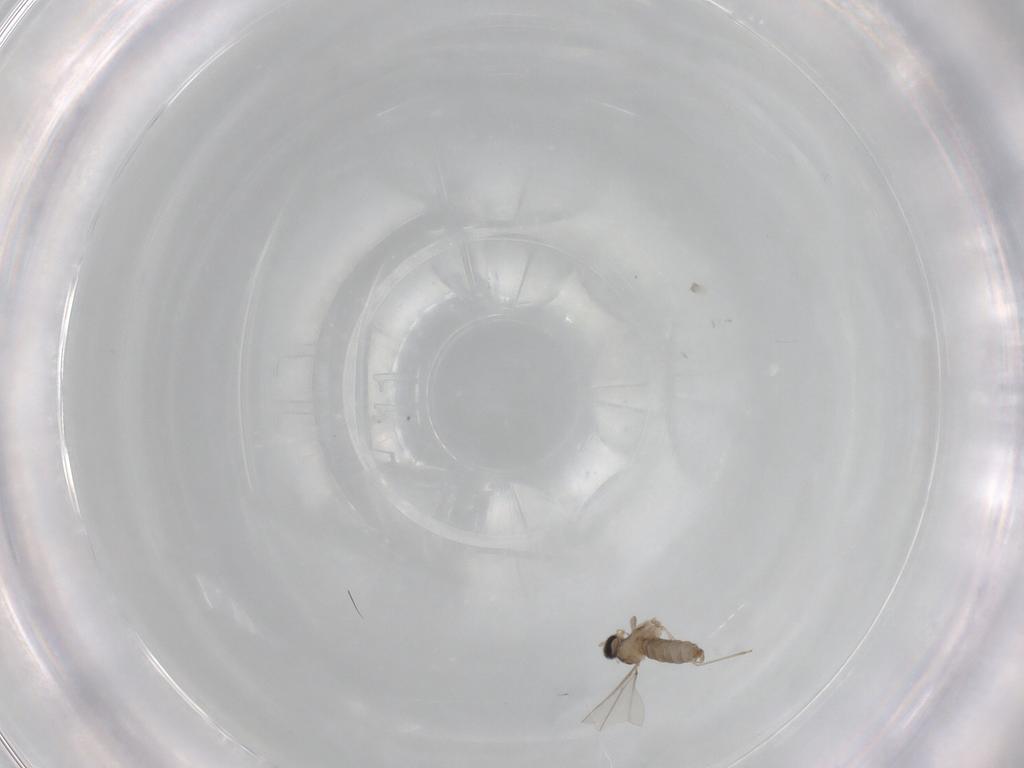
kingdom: Animalia
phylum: Arthropoda
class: Insecta
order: Diptera
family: Cecidomyiidae
